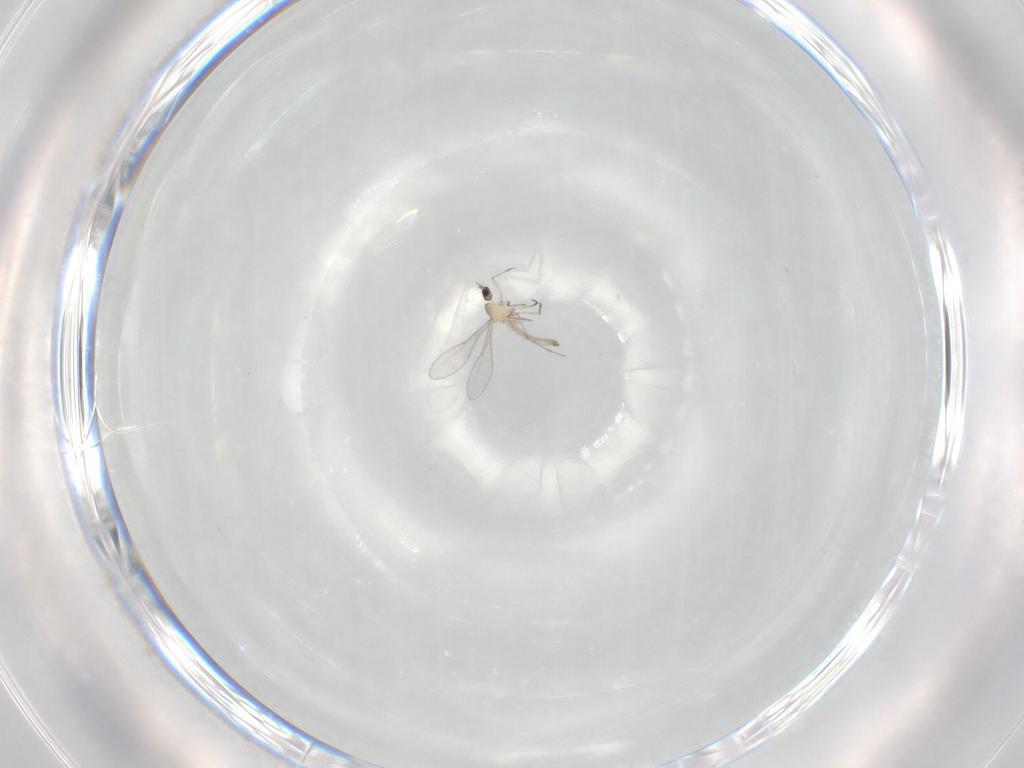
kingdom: Animalia
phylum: Arthropoda
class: Insecta
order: Diptera
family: Cecidomyiidae
